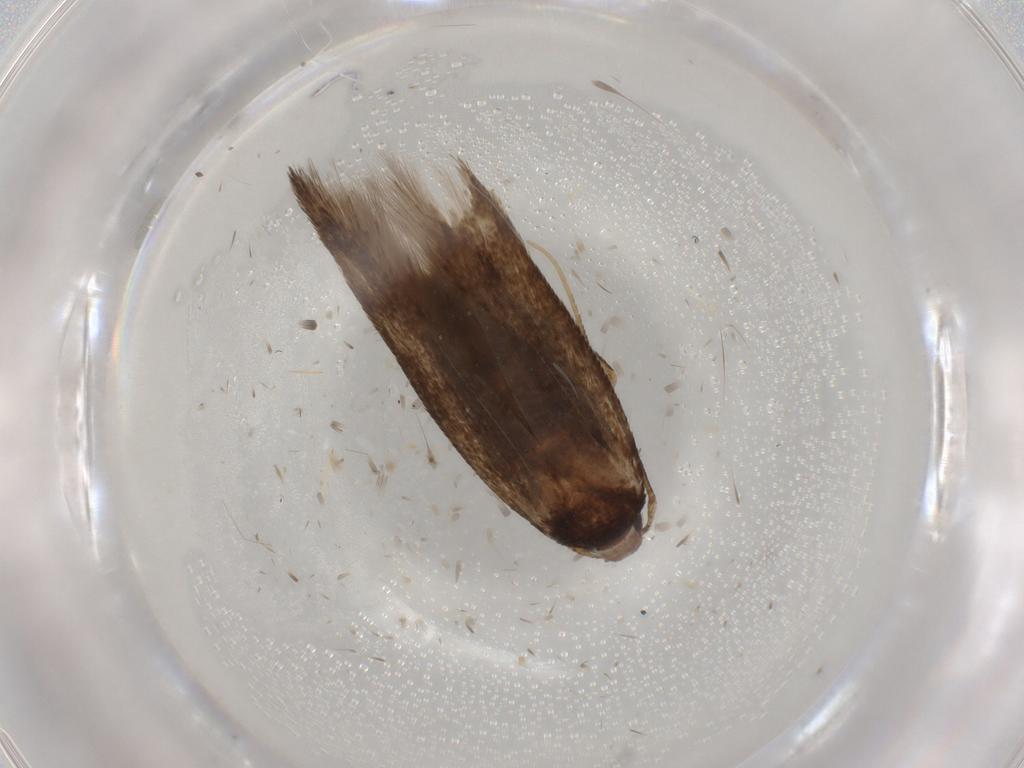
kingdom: Animalia
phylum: Arthropoda
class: Insecta
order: Lepidoptera
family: Cosmopterigidae
